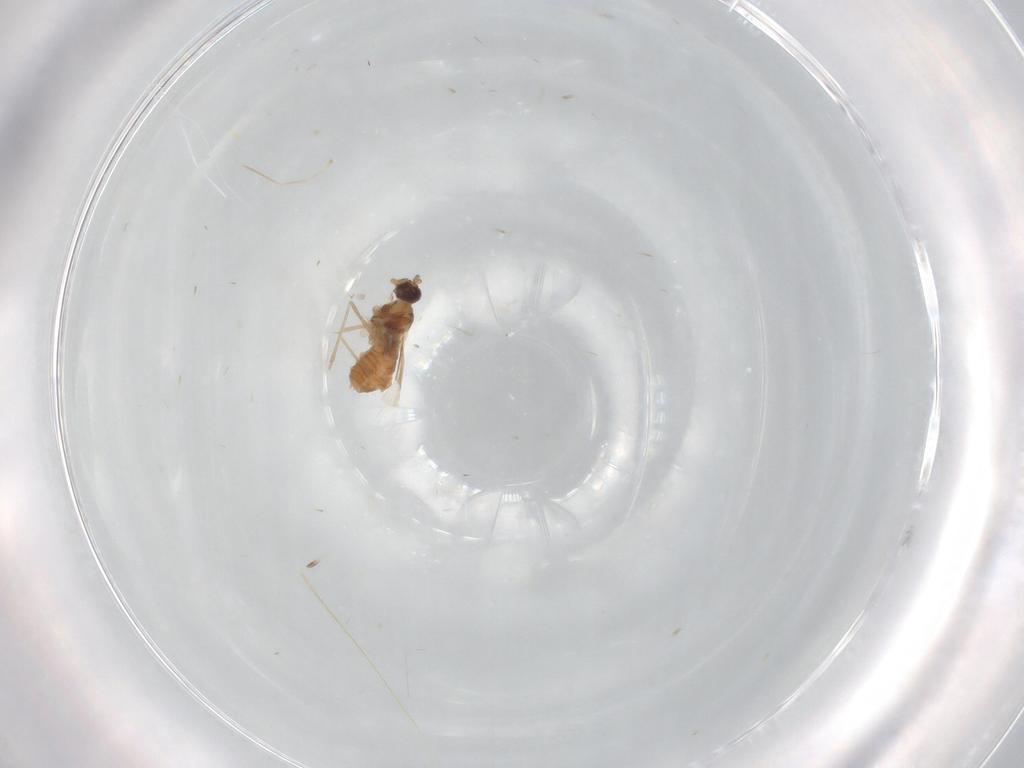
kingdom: Animalia
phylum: Arthropoda
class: Insecta
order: Diptera
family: Cecidomyiidae
